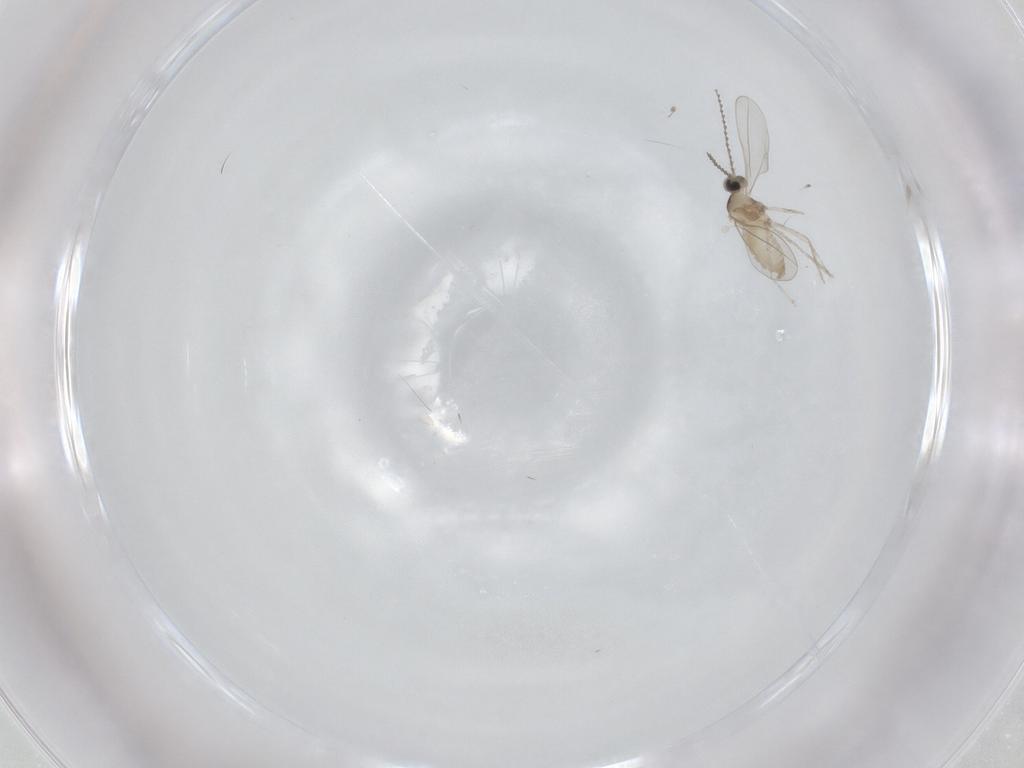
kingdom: Animalia
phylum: Arthropoda
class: Insecta
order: Diptera
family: Cecidomyiidae
